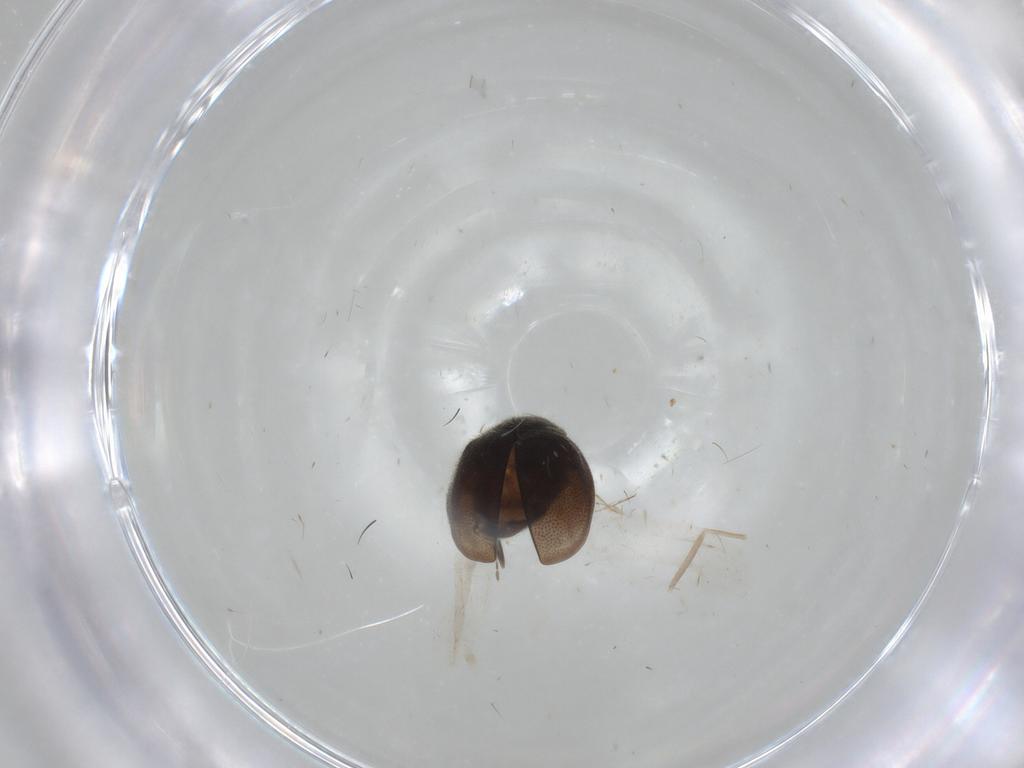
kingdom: Animalia
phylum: Arthropoda
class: Insecta
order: Coleoptera
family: Coccinellidae
